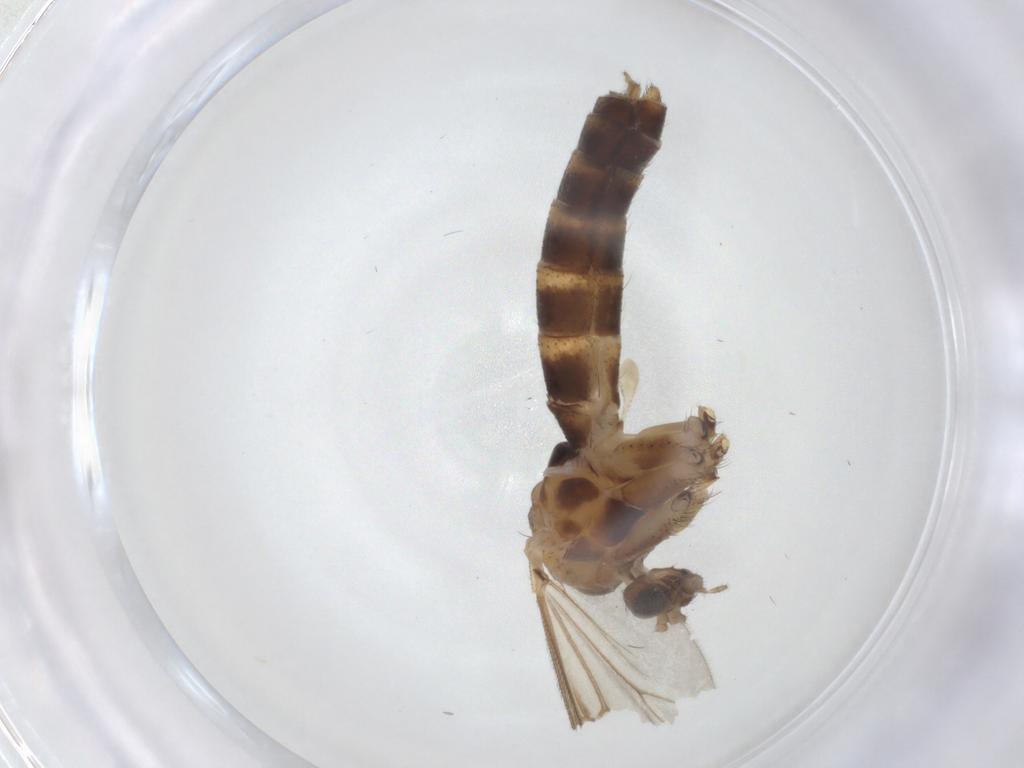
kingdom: Animalia
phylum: Arthropoda
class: Insecta
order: Diptera
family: Mycetophilidae
